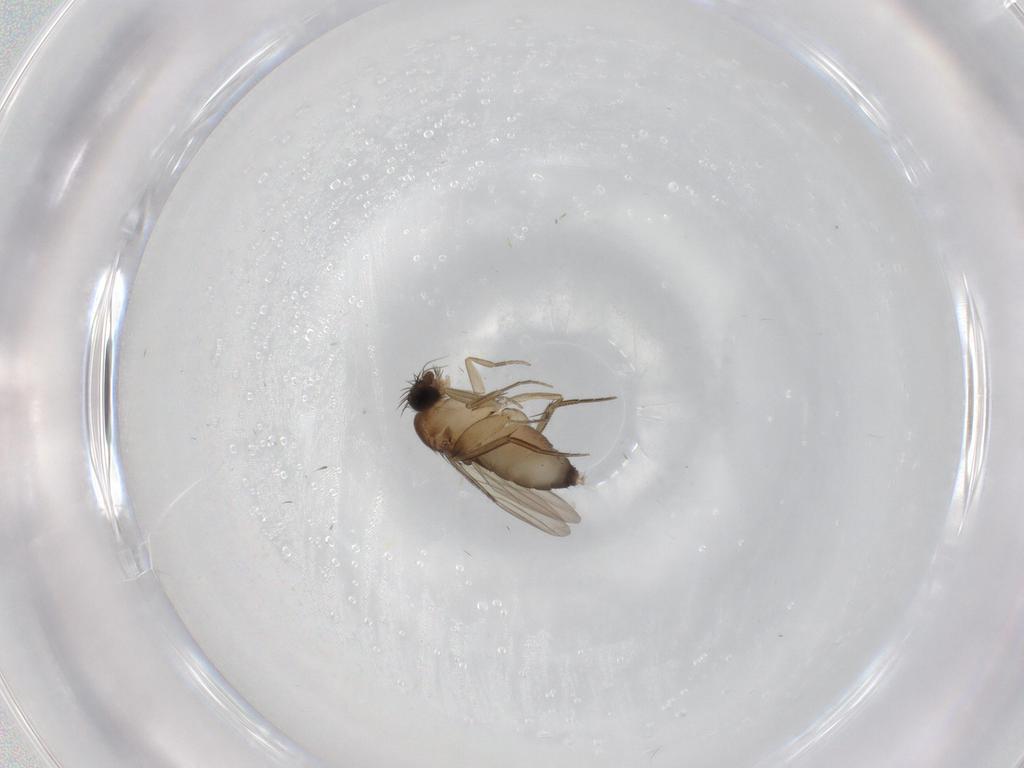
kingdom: Animalia
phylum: Arthropoda
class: Insecta
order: Diptera
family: Phoridae
